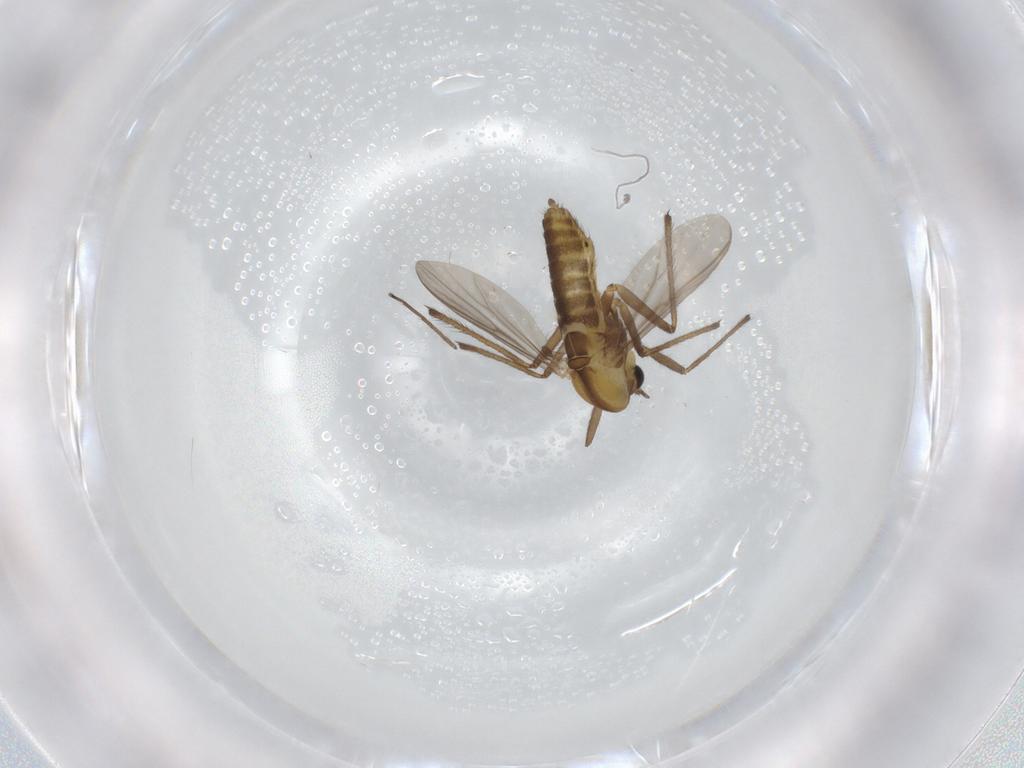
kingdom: Animalia
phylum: Arthropoda
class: Insecta
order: Diptera
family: Chironomidae
